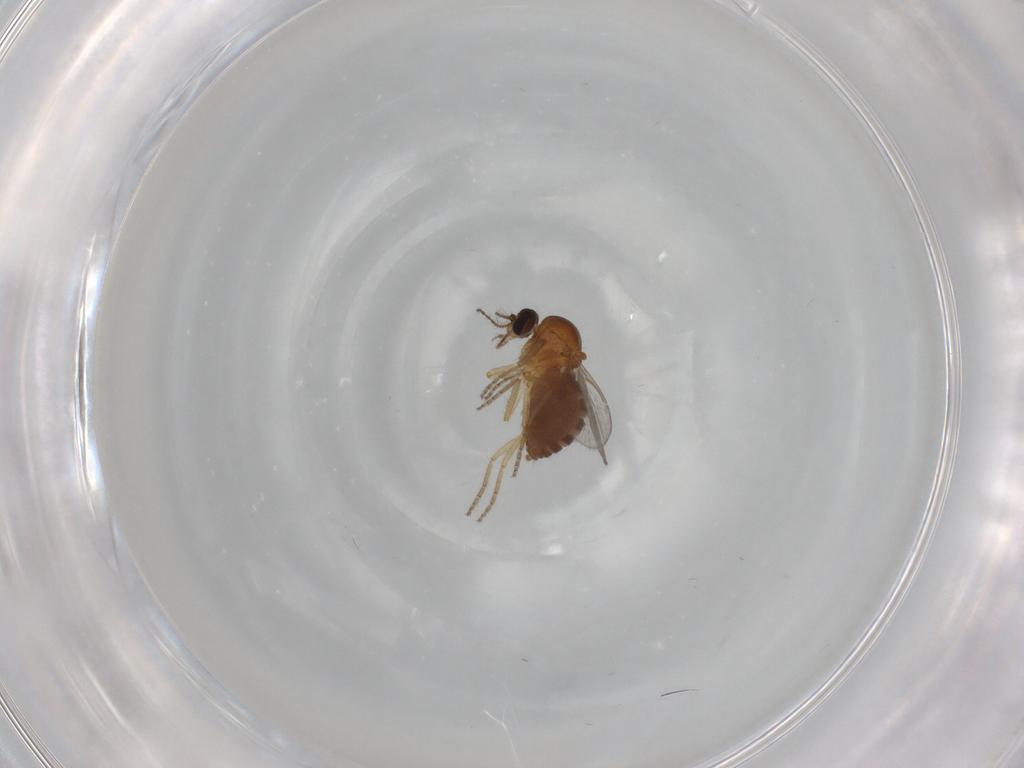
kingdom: Animalia
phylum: Arthropoda
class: Insecta
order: Diptera
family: Ceratopogonidae
